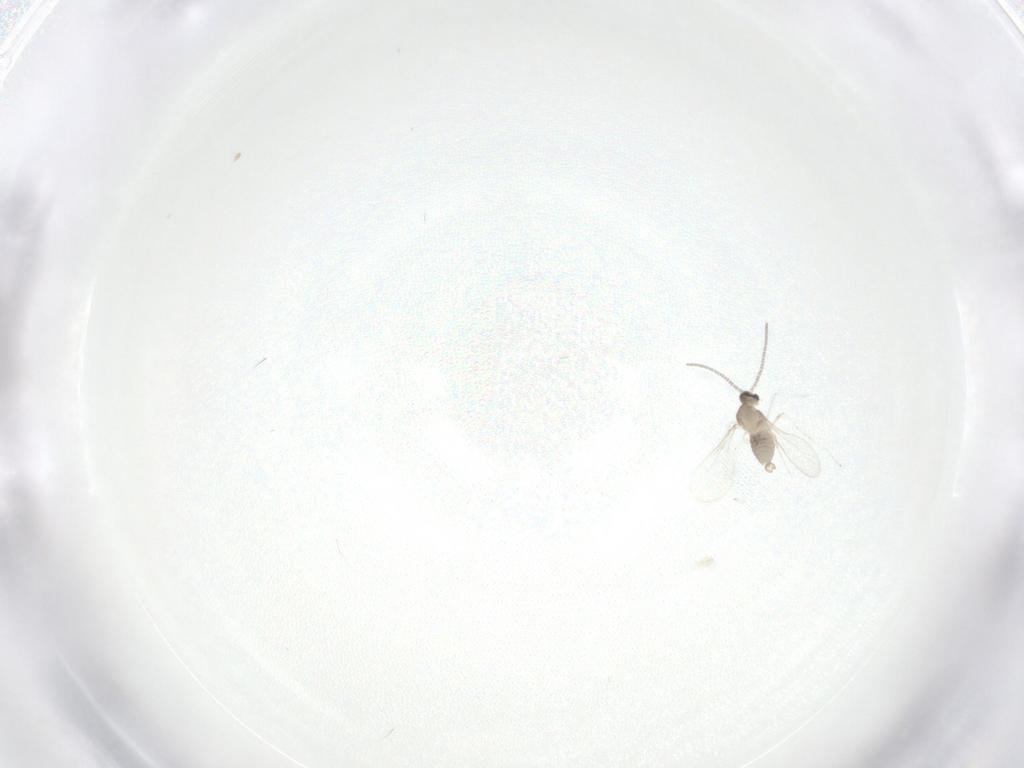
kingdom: Animalia
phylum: Arthropoda
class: Insecta
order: Diptera
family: Cecidomyiidae
